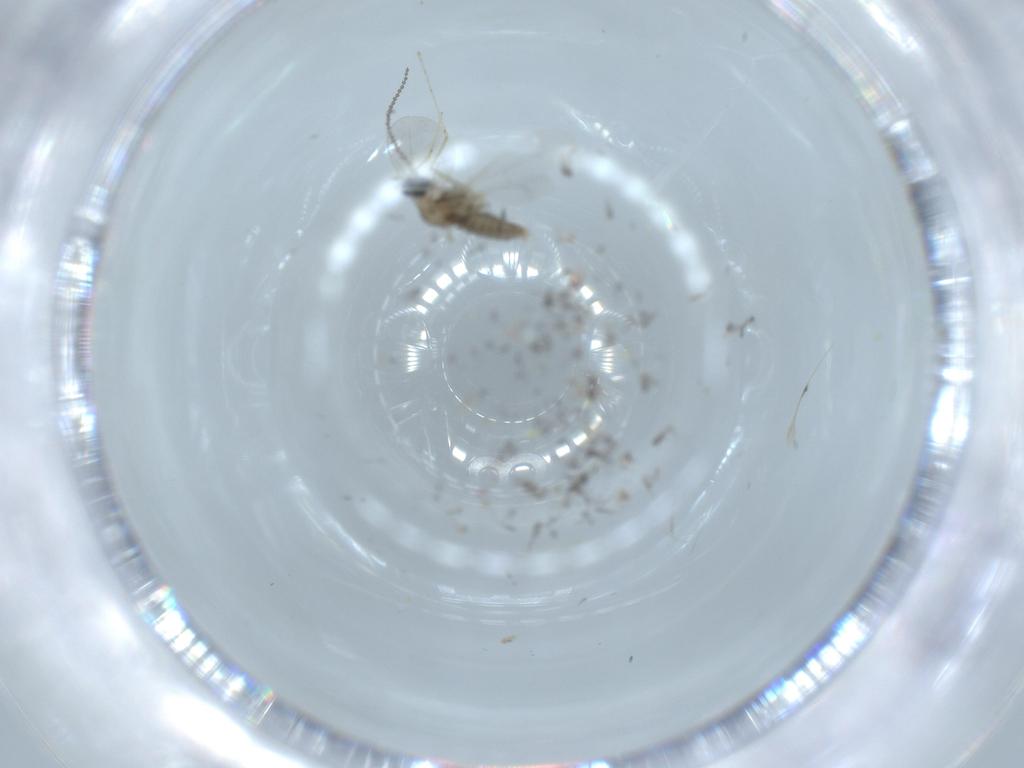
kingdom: Animalia
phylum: Arthropoda
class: Insecta
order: Diptera
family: Cecidomyiidae
